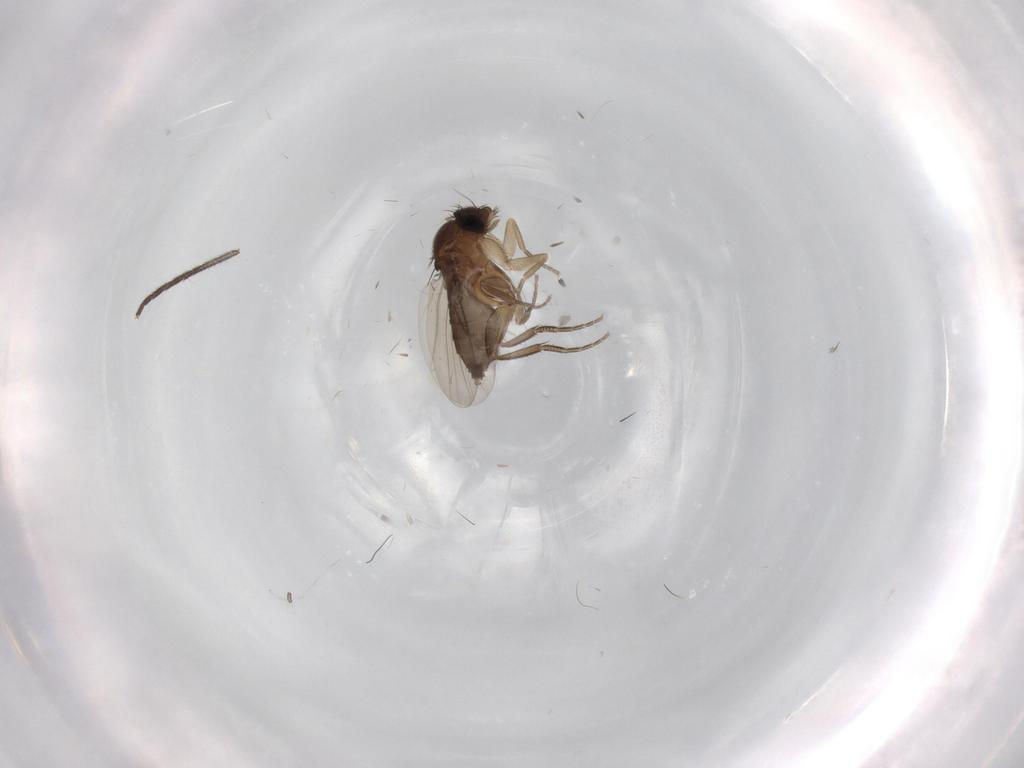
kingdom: Animalia
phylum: Arthropoda
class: Insecta
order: Diptera
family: Phoridae
